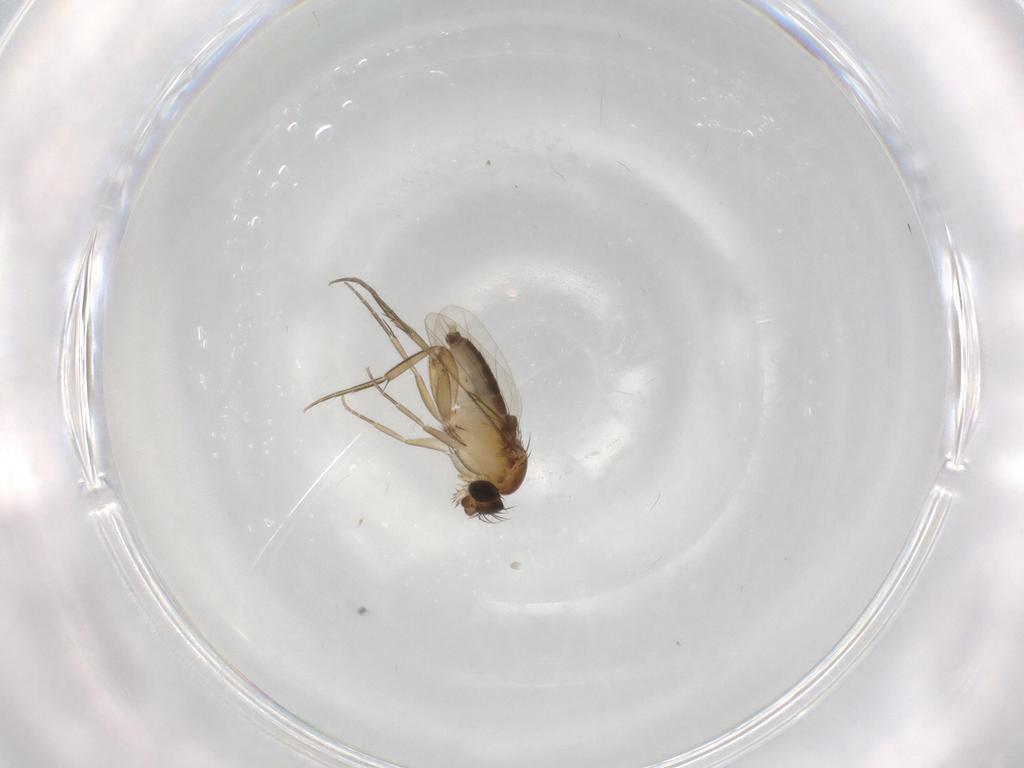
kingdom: Animalia
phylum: Arthropoda
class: Insecta
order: Diptera
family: Phoridae
